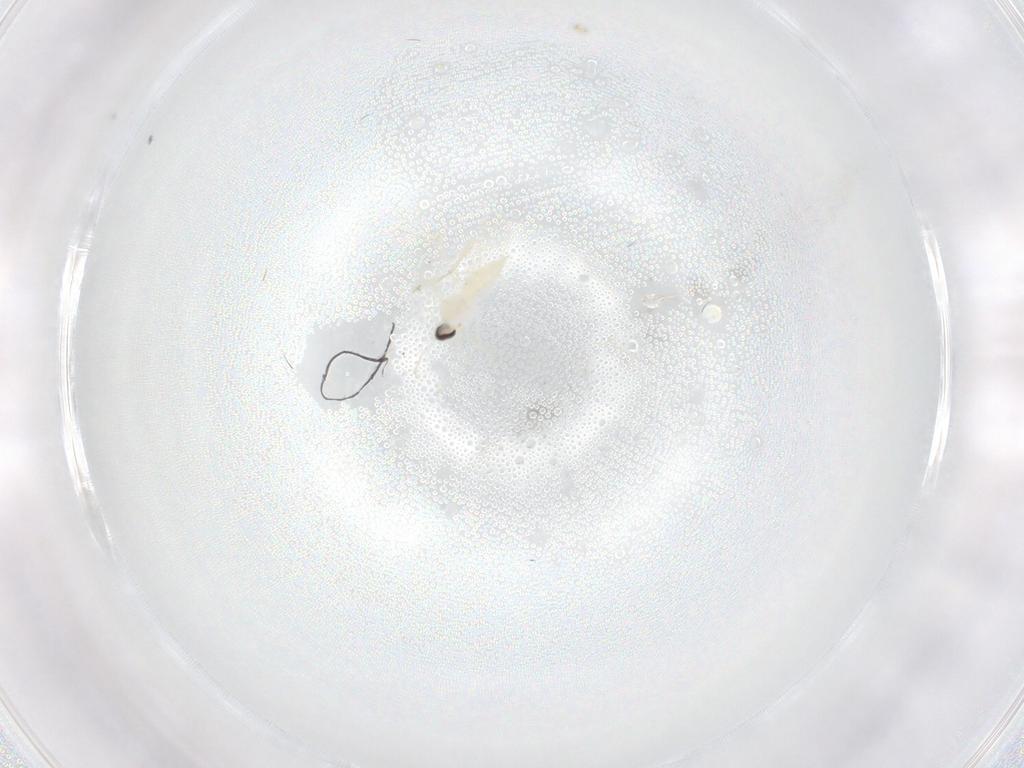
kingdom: Animalia
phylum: Arthropoda
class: Insecta
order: Diptera
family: Cecidomyiidae
